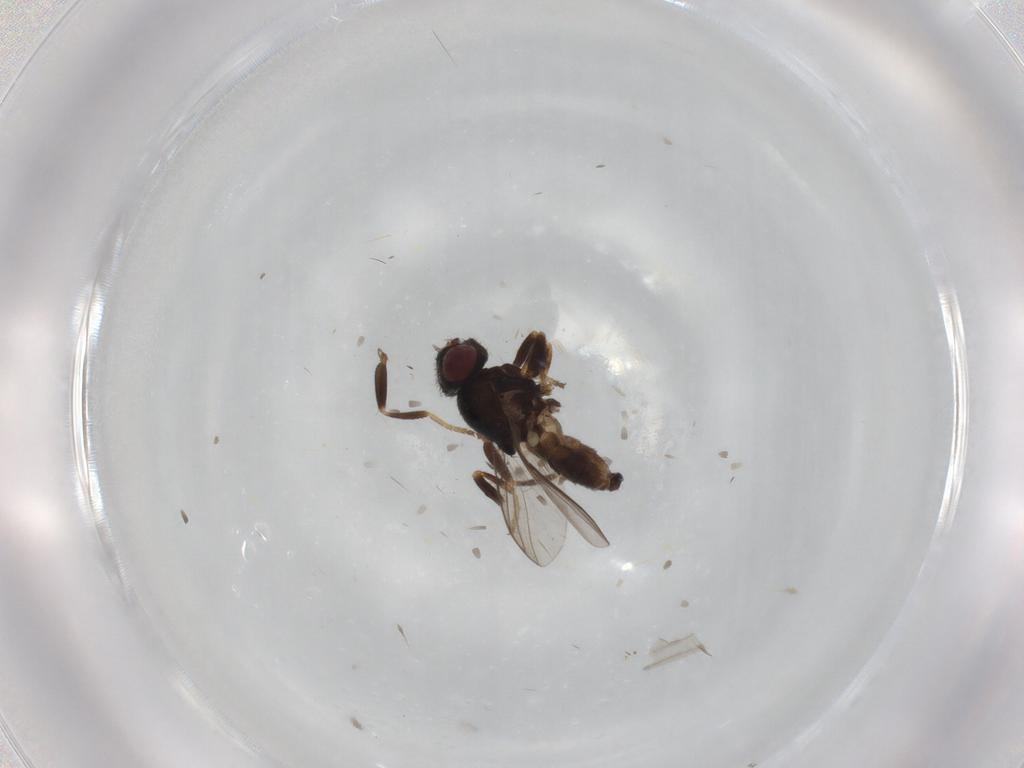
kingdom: Animalia
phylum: Arthropoda
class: Insecta
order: Diptera
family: Chloropidae
